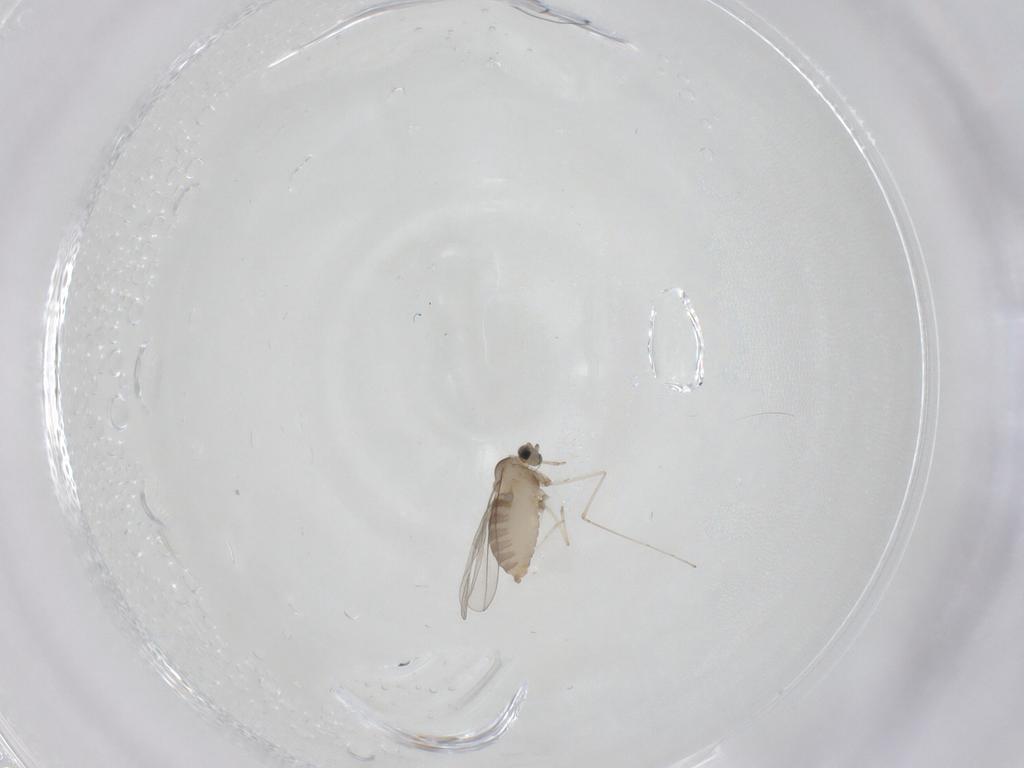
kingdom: Animalia
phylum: Arthropoda
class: Insecta
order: Diptera
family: Cecidomyiidae
